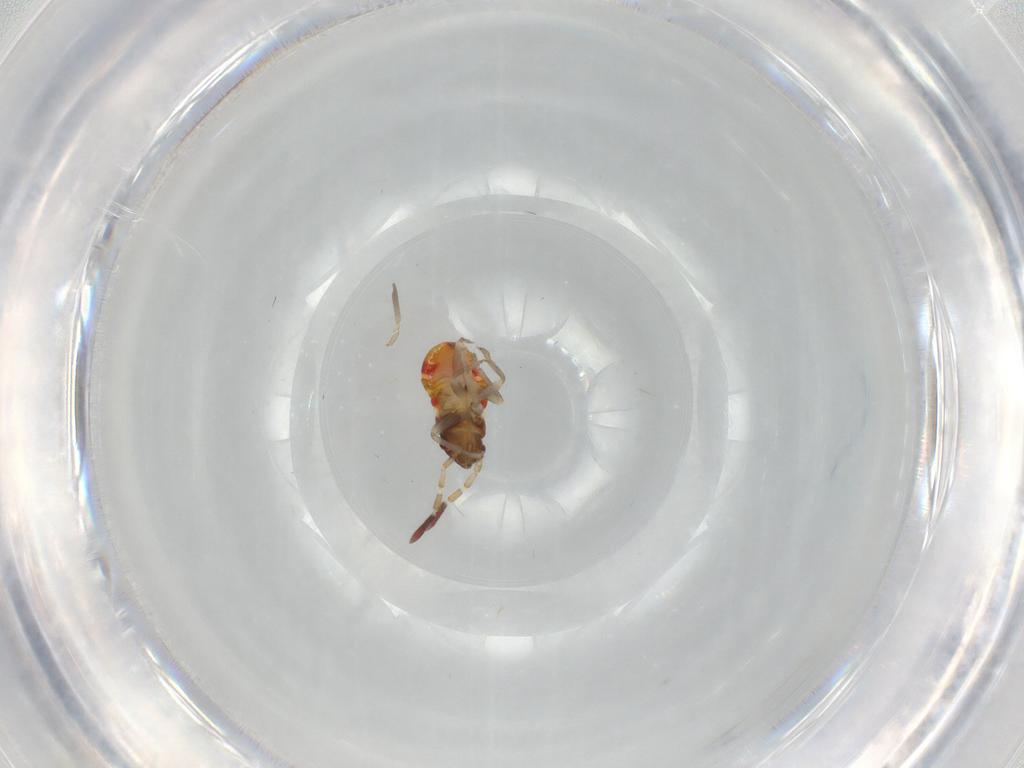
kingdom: Animalia
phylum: Arthropoda
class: Insecta
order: Hemiptera
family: Rhyparochromidae
